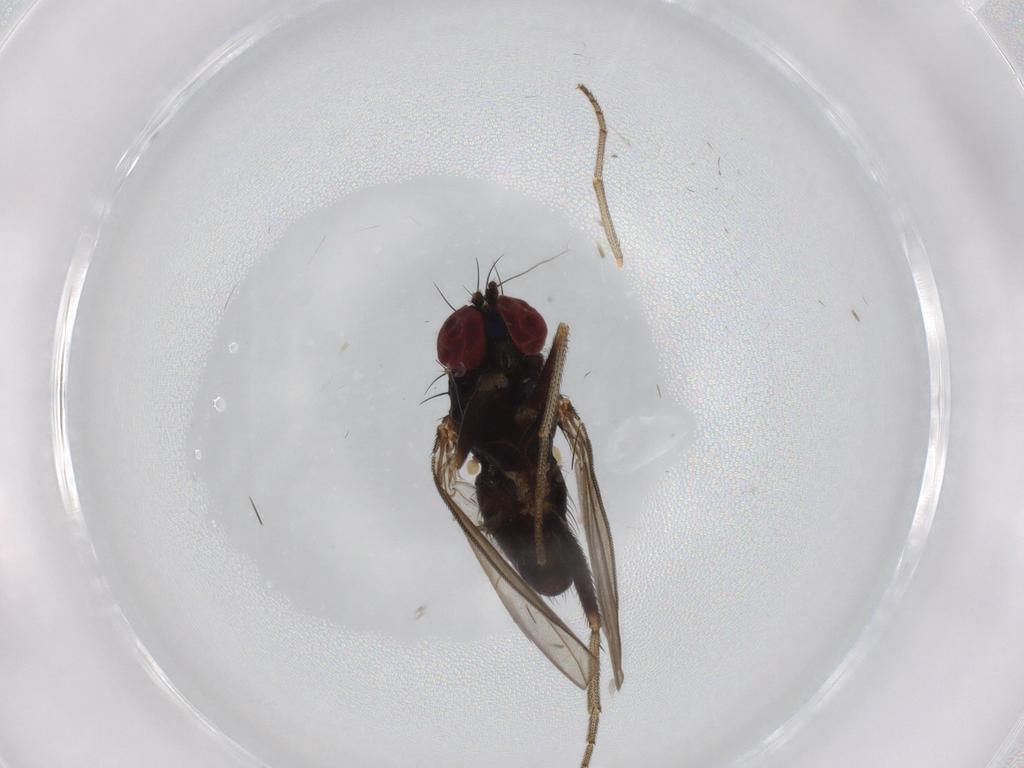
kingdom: Animalia
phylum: Arthropoda
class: Insecta
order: Diptera
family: Dolichopodidae
